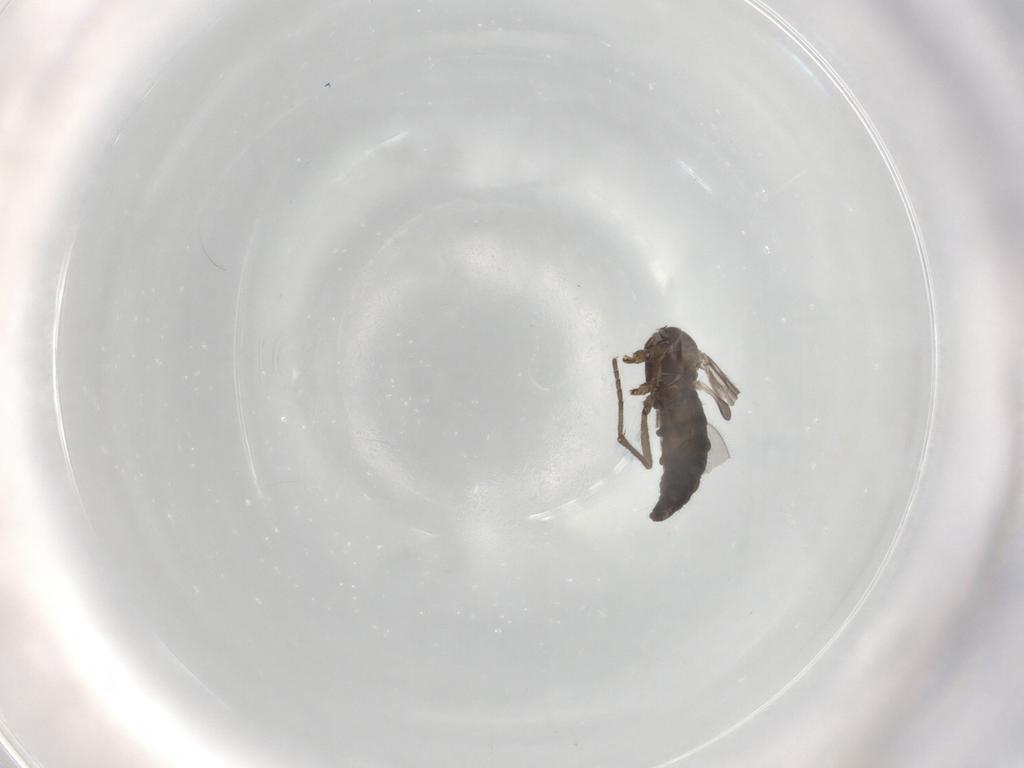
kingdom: Animalia
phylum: Arthropoda
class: Insecta
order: Diptera
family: Sciaridae
